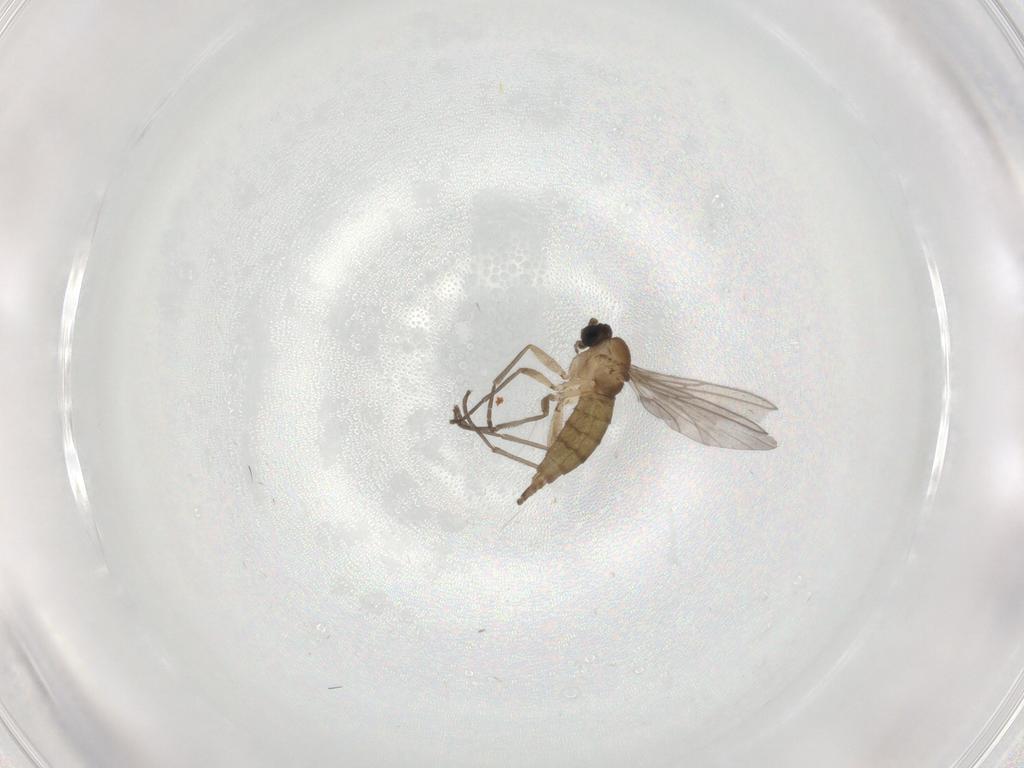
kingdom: Animalia
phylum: Arthropoda
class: Insecta
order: Diptera
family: Sciaridae
